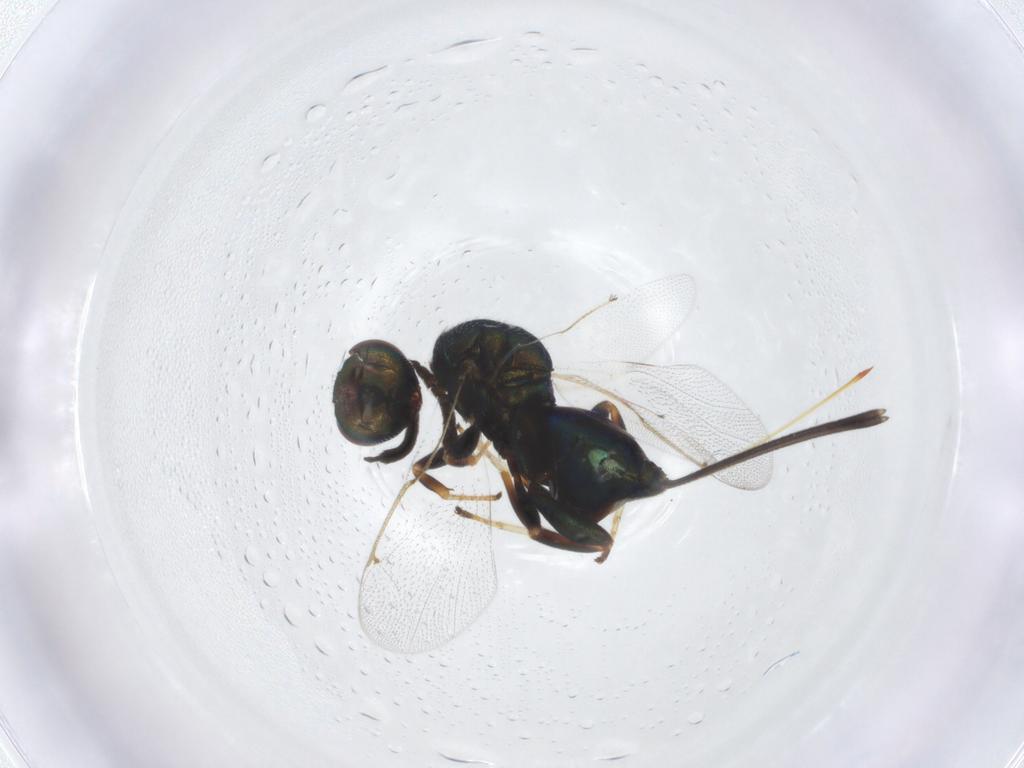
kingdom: Animalia
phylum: Arthropoda
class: Insecta
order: Hymenoptera
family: Torymidae
